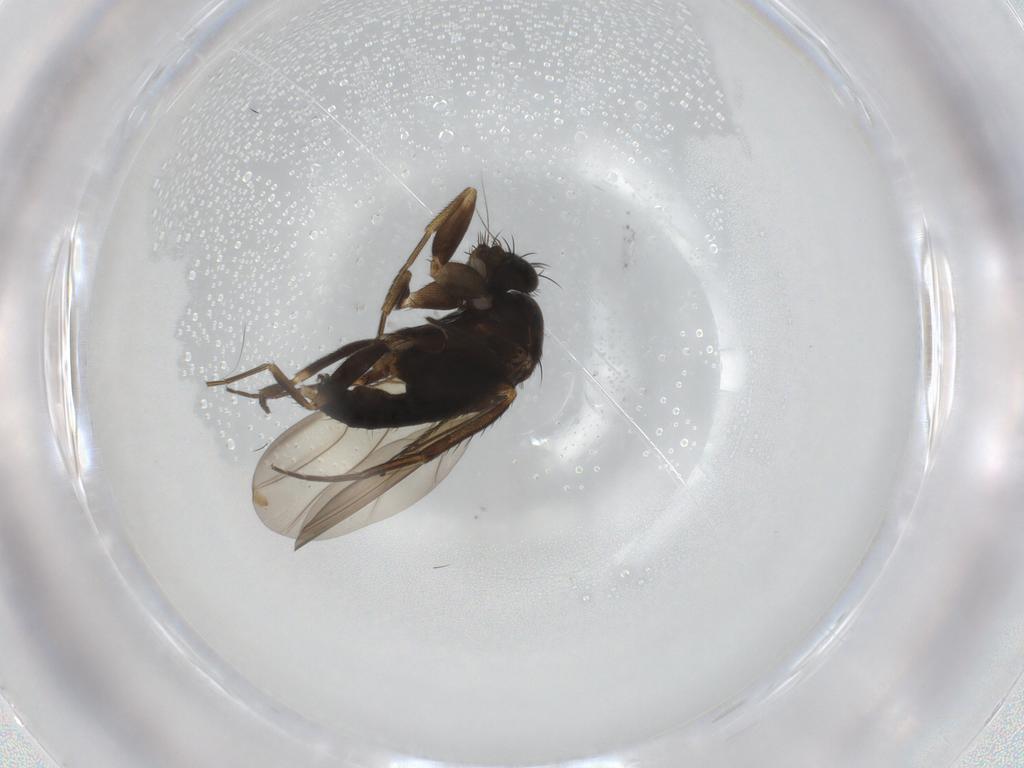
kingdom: Animalia
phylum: Arthropoda
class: Insecta
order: Diptera
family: Phoridae
